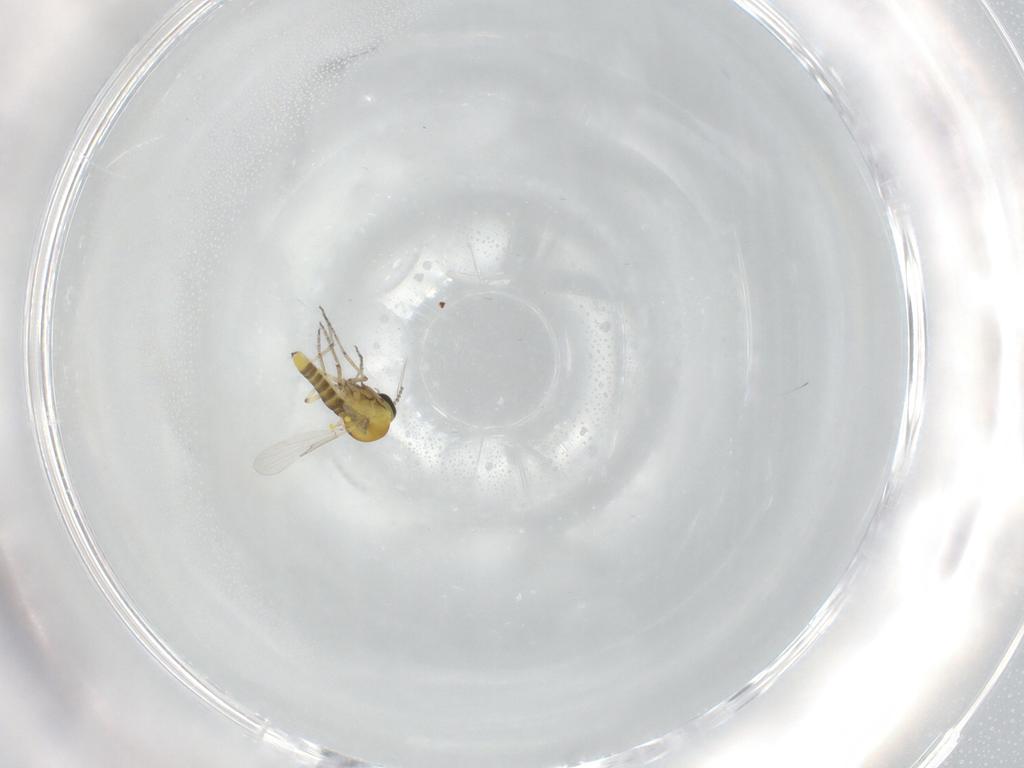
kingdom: Animalia
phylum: Arthropoda
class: Insecta
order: Diptera
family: Ceratopogonidae
